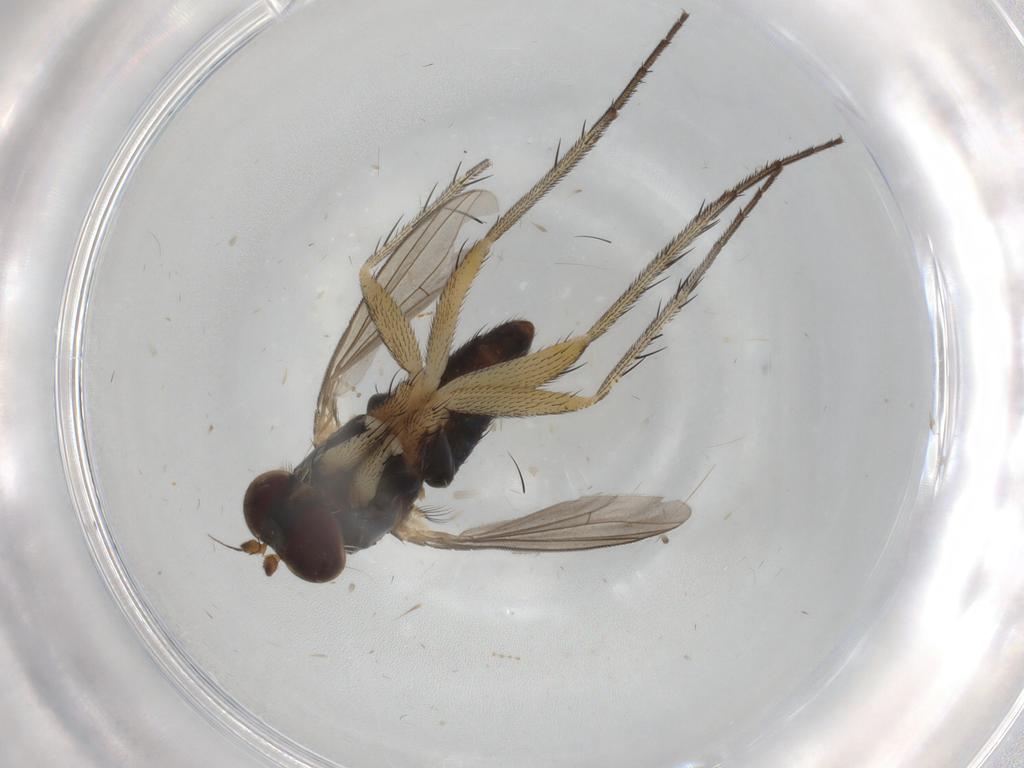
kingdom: Animalia
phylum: Arthropoda
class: Insecta
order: Diptera
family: Dolichopodidae
